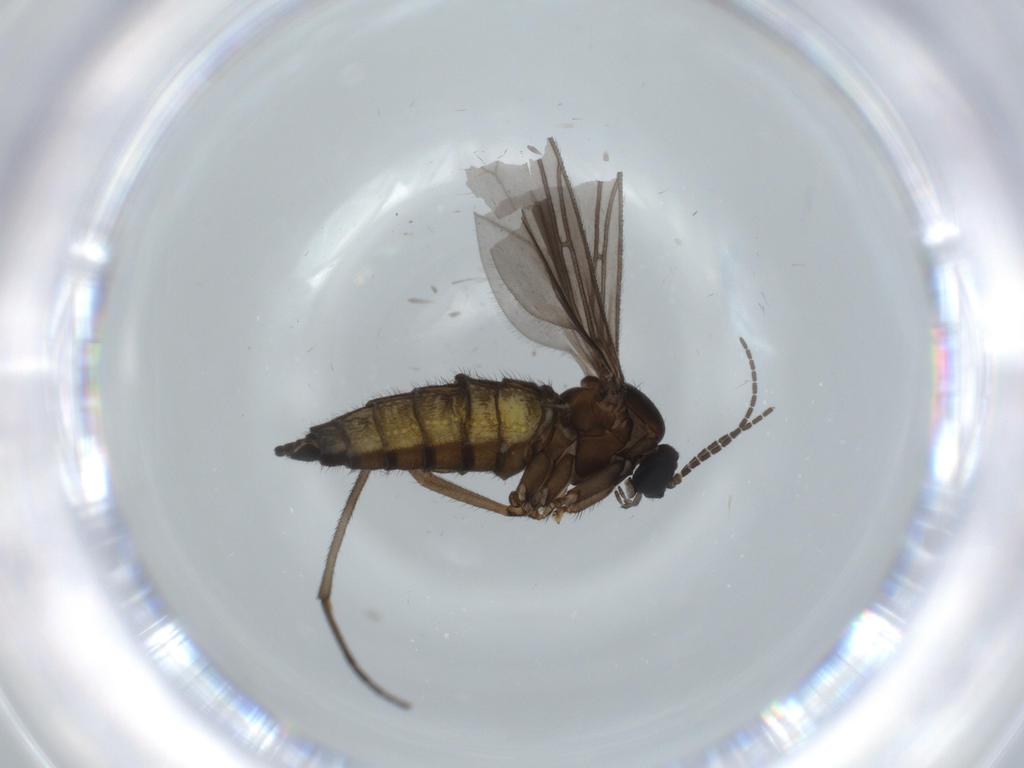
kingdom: Animalia
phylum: Arthropoda
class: Insecta
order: Diptera
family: Sciaridae
